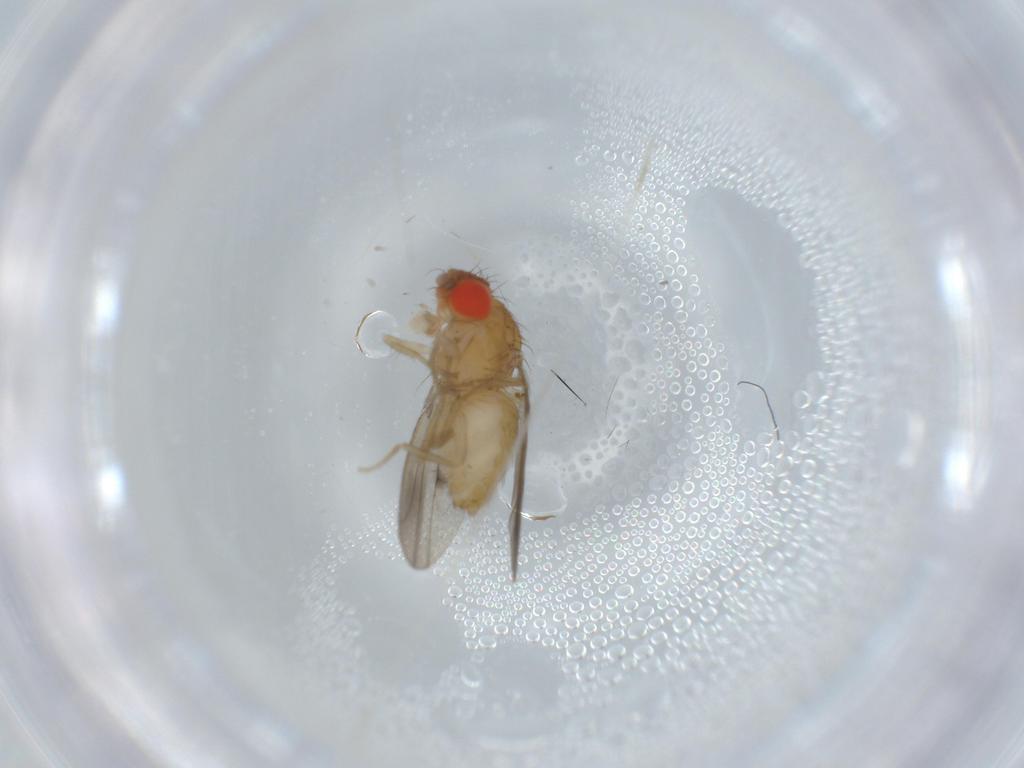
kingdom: Animalia
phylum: Arthropoda
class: Insecta
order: Diptera
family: Drosophilidae
